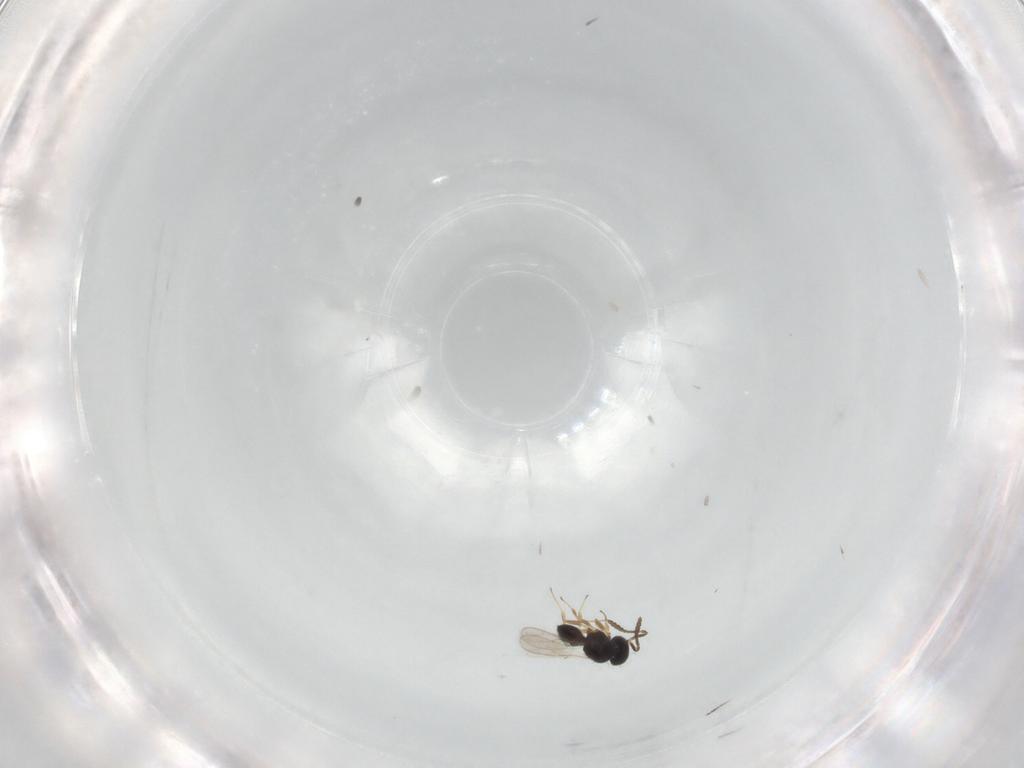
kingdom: Animalia
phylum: Arthropoda
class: Insecta
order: Hymenoptera
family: Scelionidae
